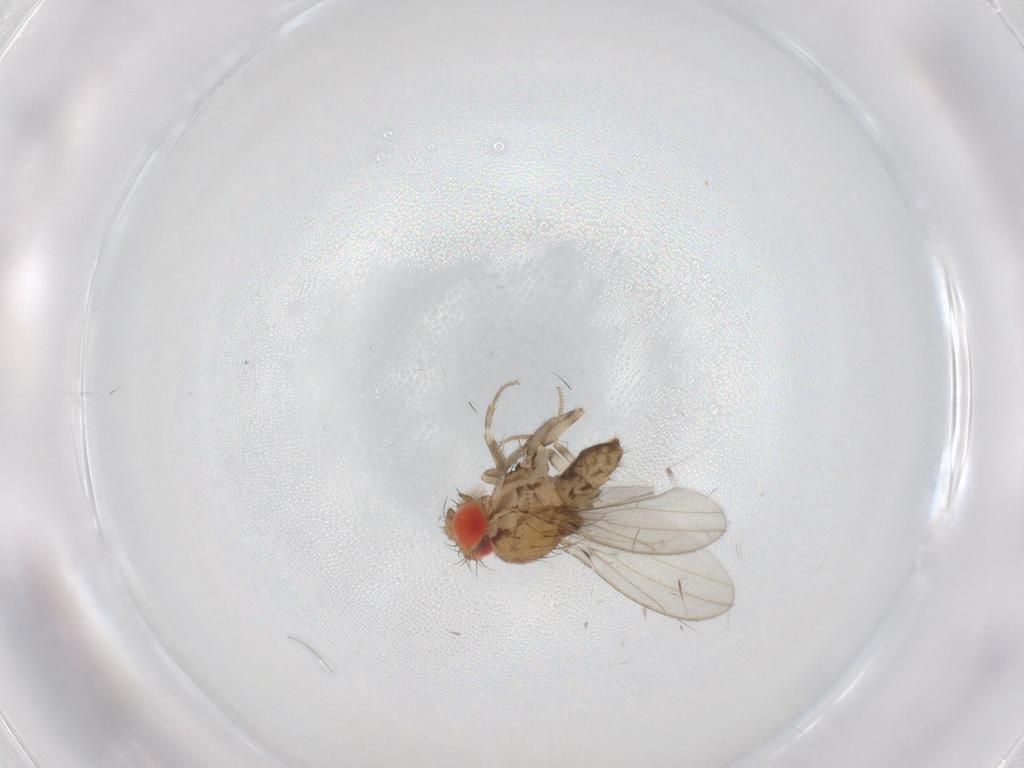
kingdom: Animalia
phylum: Arthropoda
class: Insecta
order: Diptera
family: Drosophilidae
